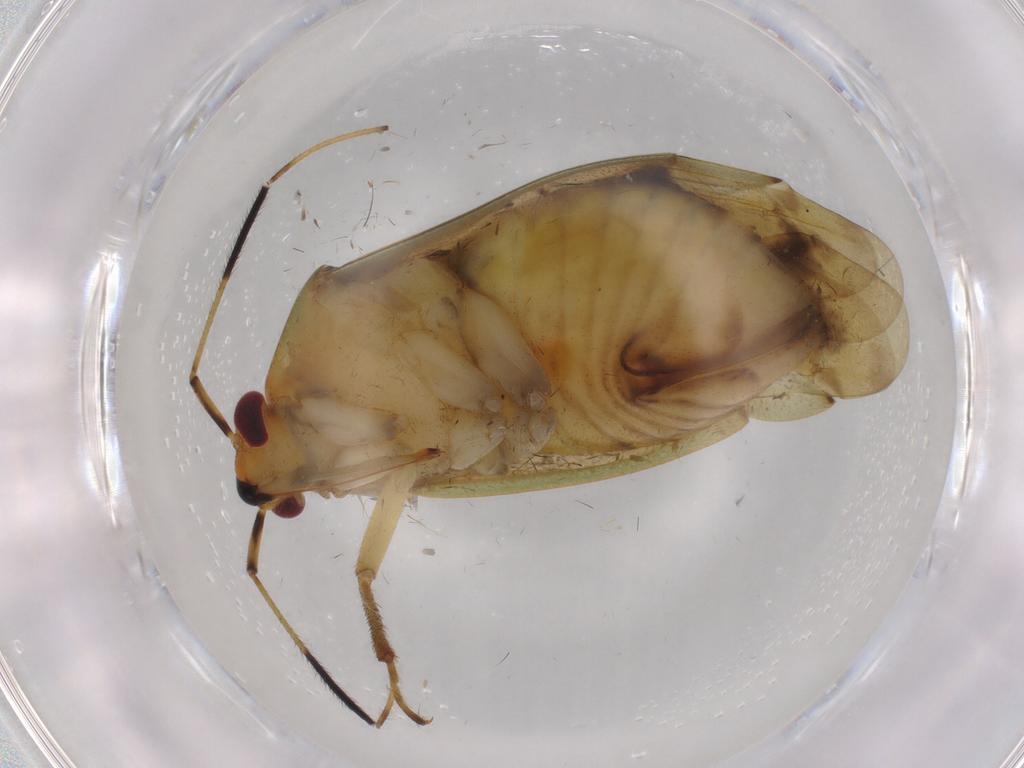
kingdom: Animalia
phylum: Arthropoda
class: Insecta
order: Hemiptera
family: Miridae
